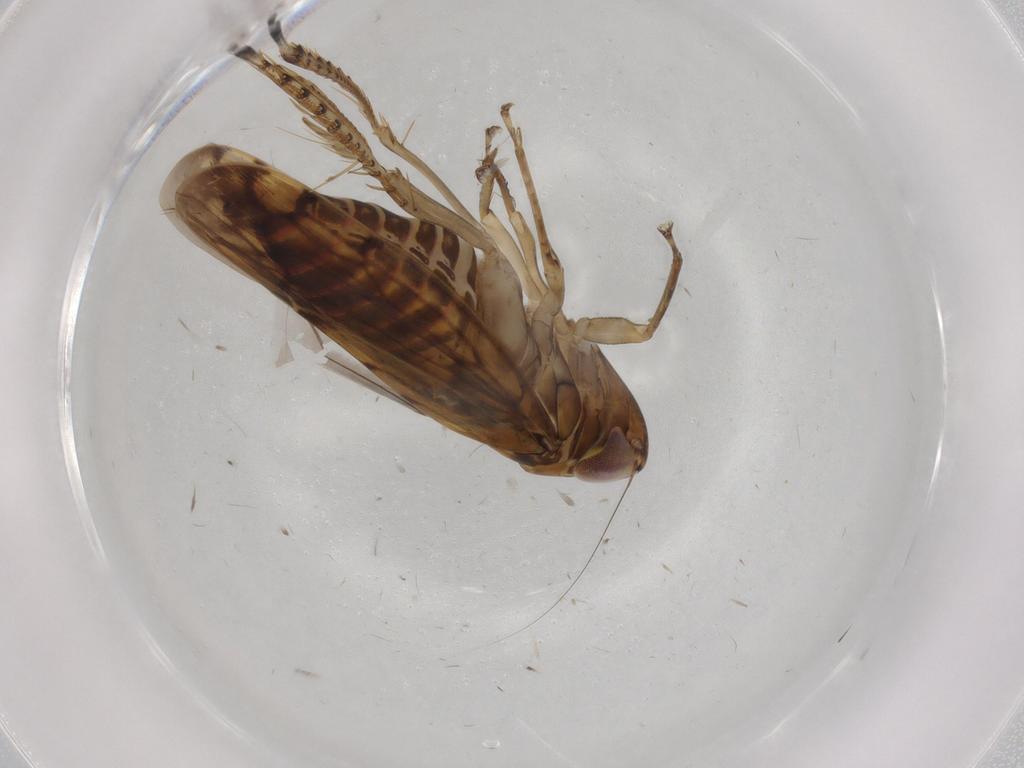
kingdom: Animalia
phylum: Arthropoda
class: Insecta
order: Hemiptera
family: Cicadellidae
